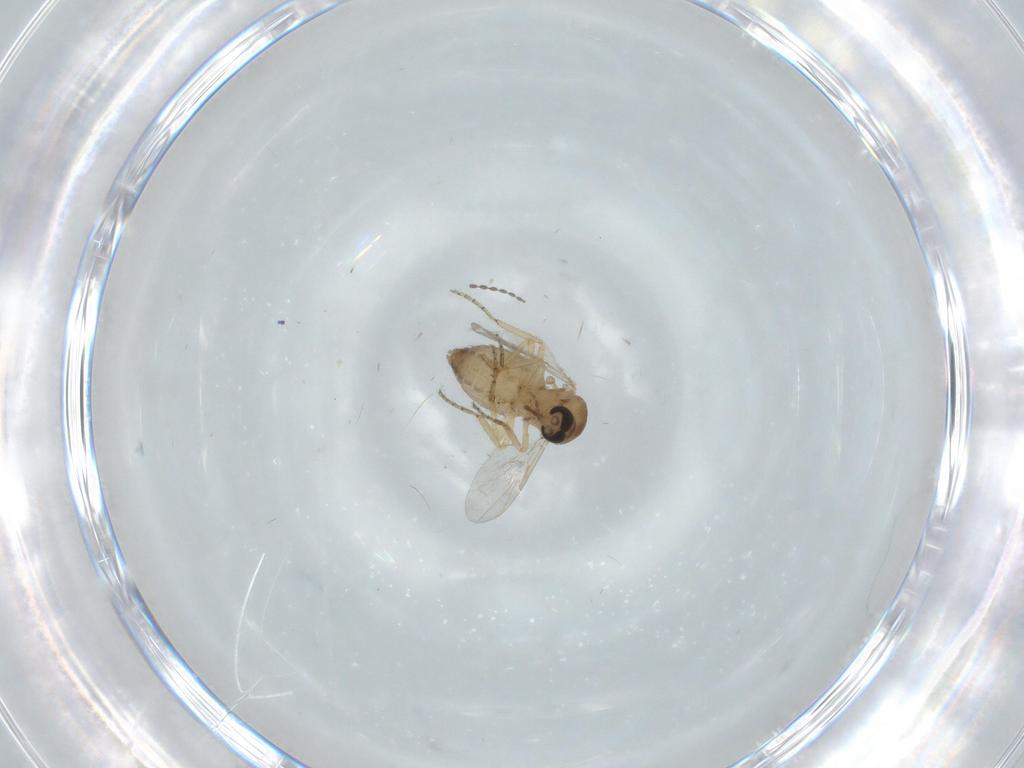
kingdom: Animalia
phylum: Arthropoda
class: Insecta
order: Diptera
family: Ceratopogonidae
